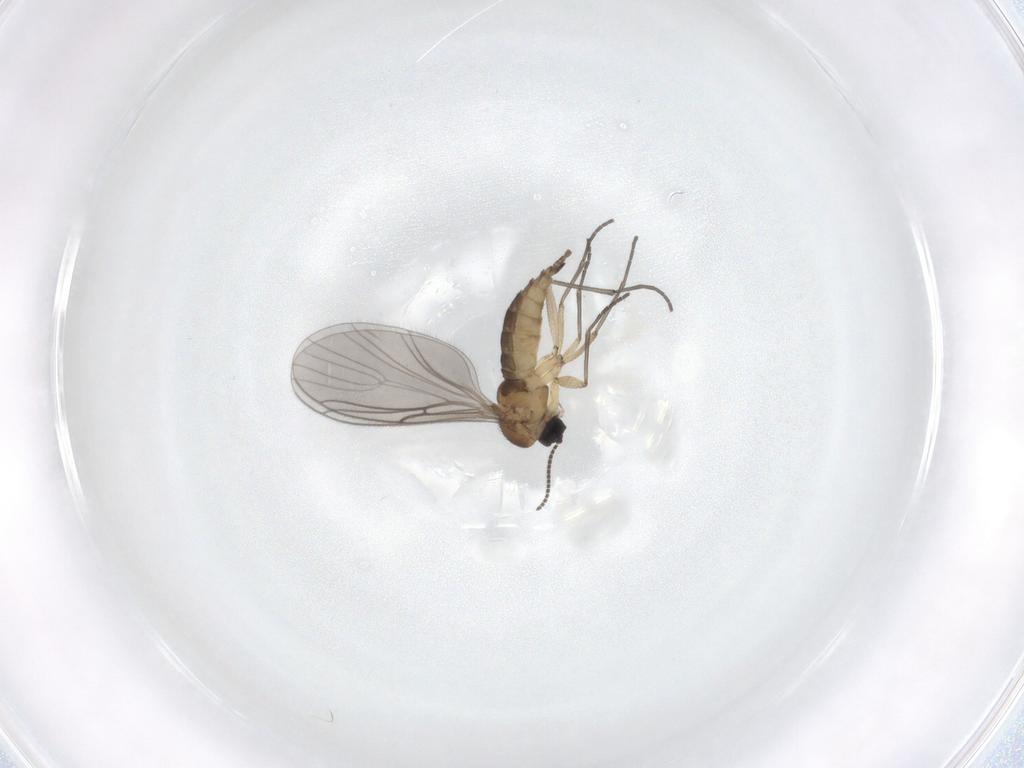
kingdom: Animalia
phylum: Arthropoda
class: Insecta
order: Diptera
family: Sciaridae
